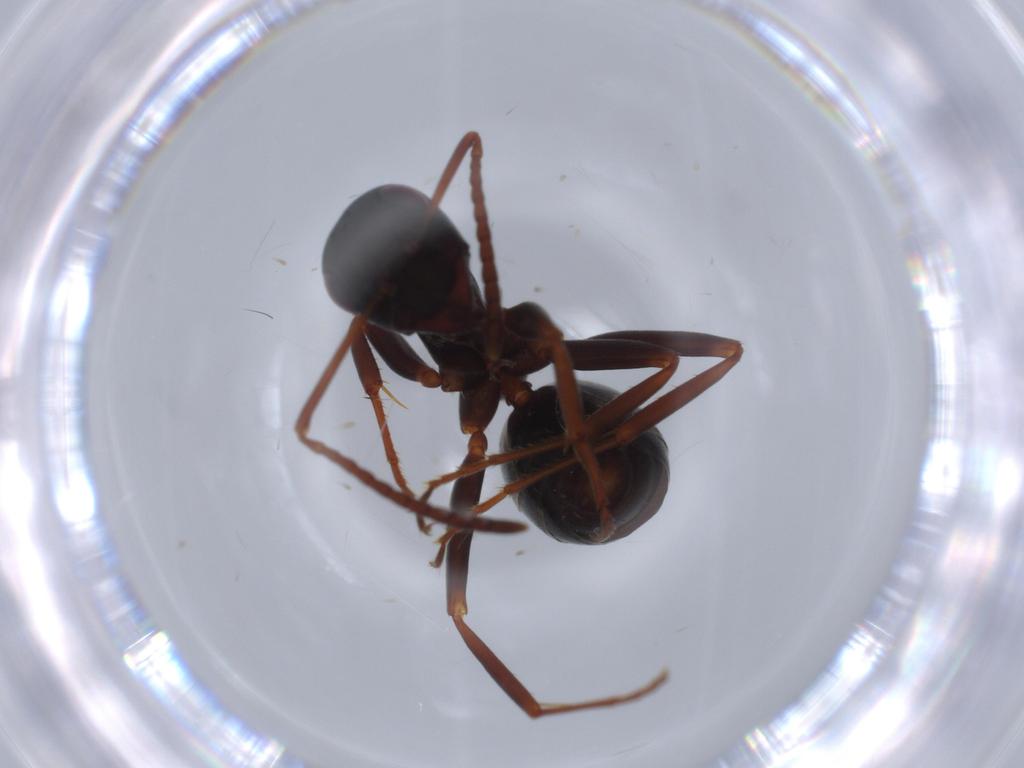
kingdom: Animalia
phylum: Arthropoda
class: Insecta
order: Hymenoptera
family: Formicidae
